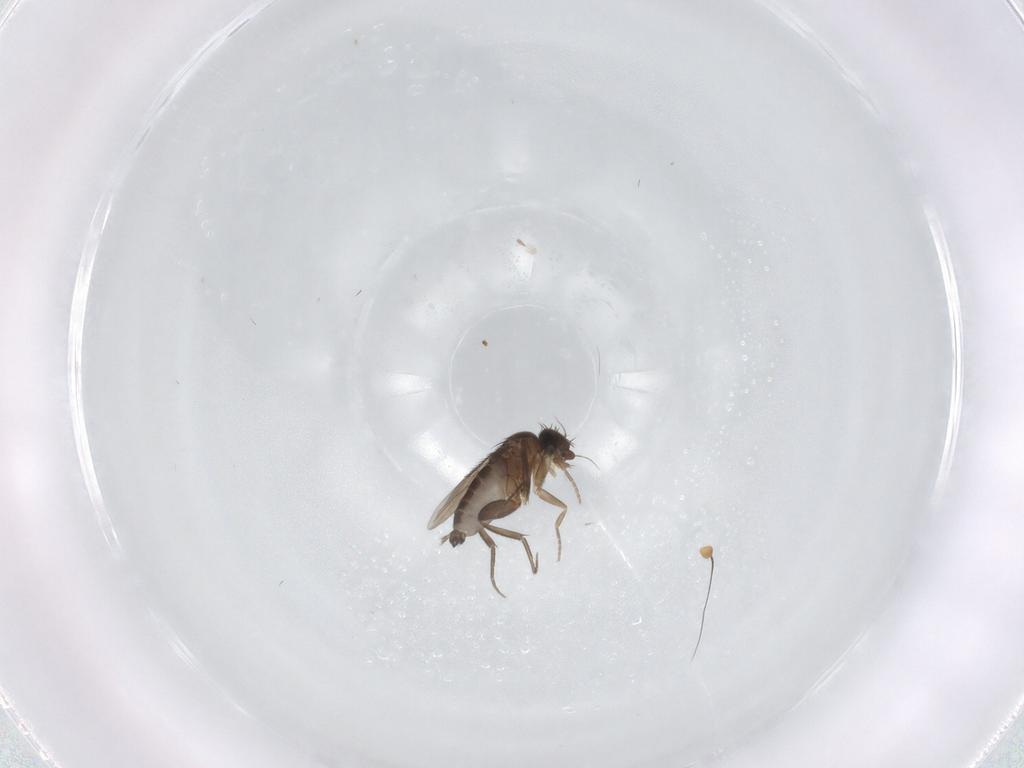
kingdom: Animalia
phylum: Arthropoda
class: Insecta
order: Diptera
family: Phoridae
